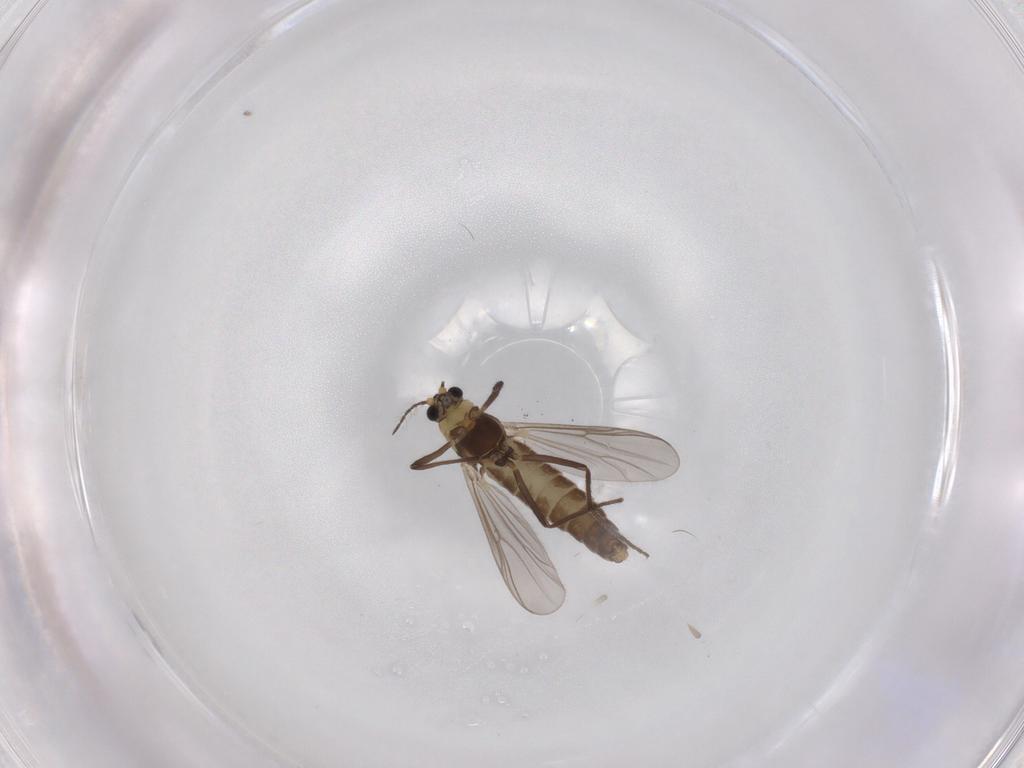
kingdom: Animalia
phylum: Arthropoda
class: Insecta
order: Diptera
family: Chironomidae
